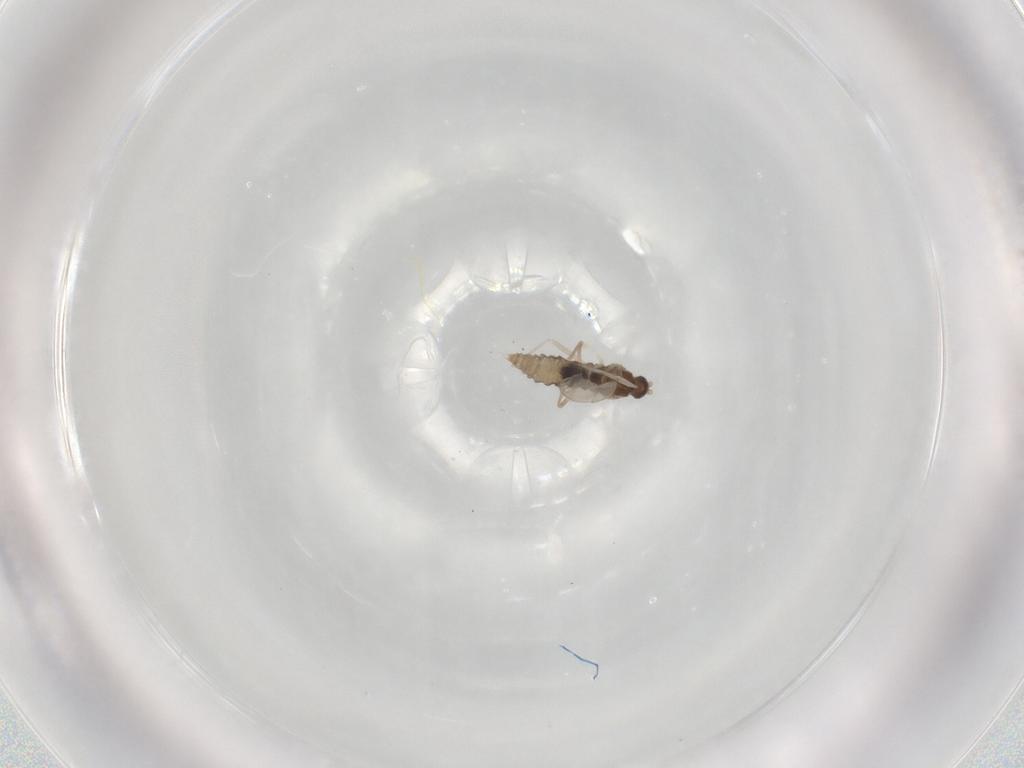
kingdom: Animalia
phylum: Arthropoda
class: Insecta
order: Diptera
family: Cecidomyiidae
